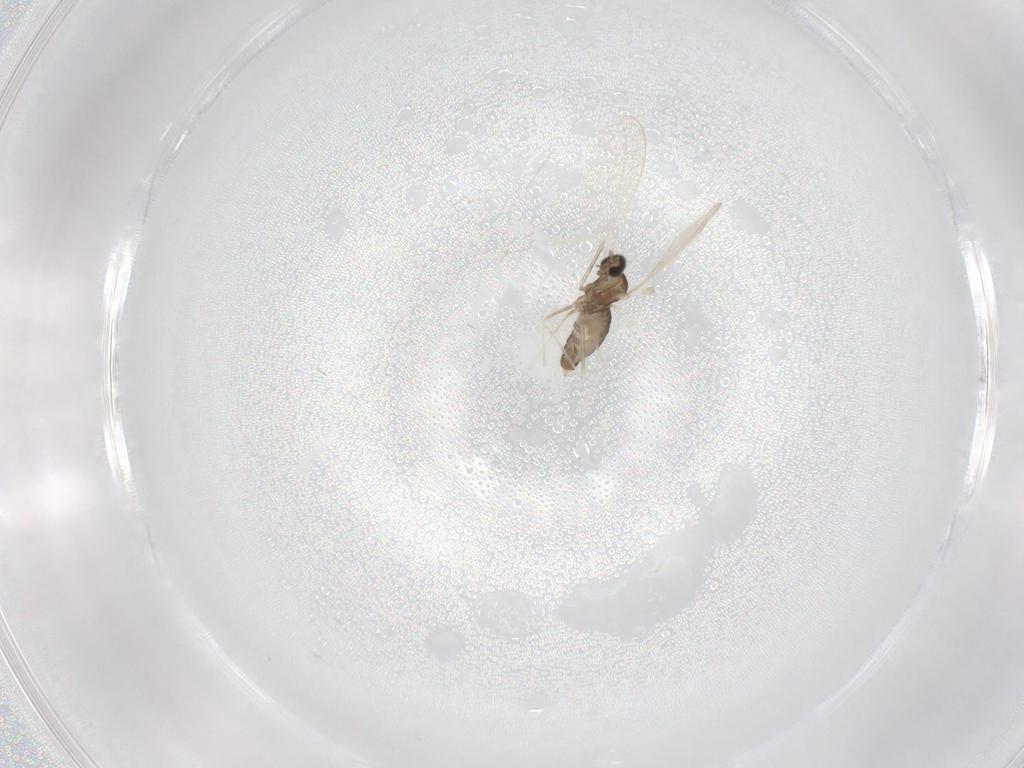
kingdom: Animalia
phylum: Arthropoda
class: Insecta
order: Diptera
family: Cecidomyiidae
